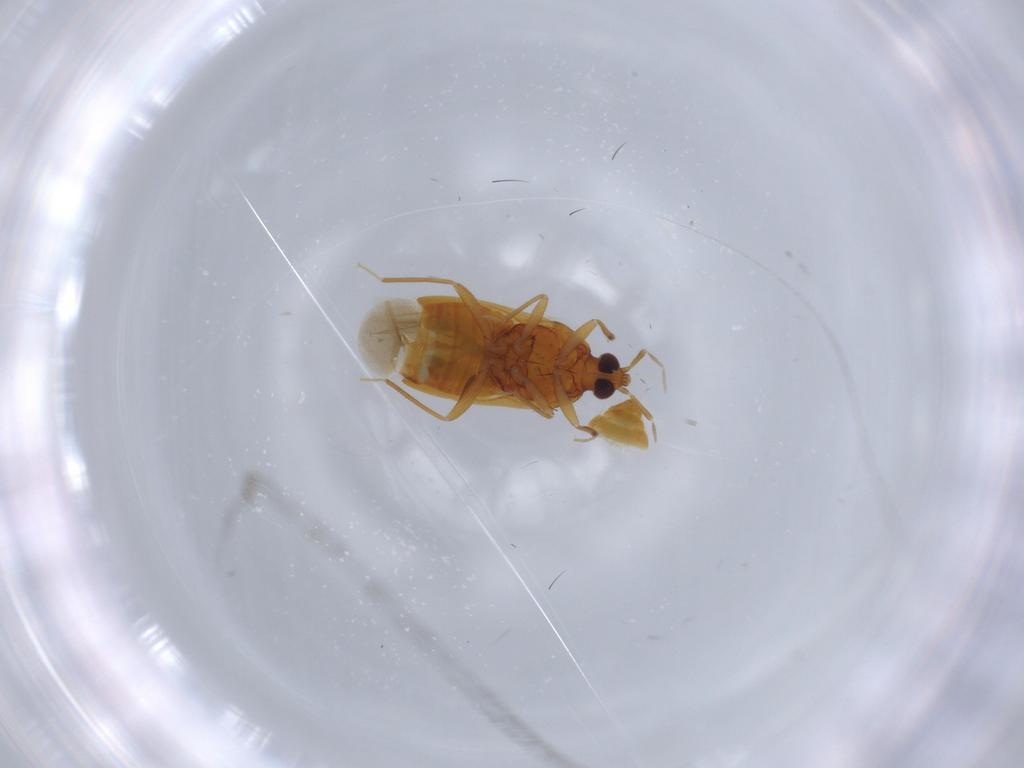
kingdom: Animalia
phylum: Arthropoda
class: Insecta
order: Hemiptera
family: Anthocoridae
